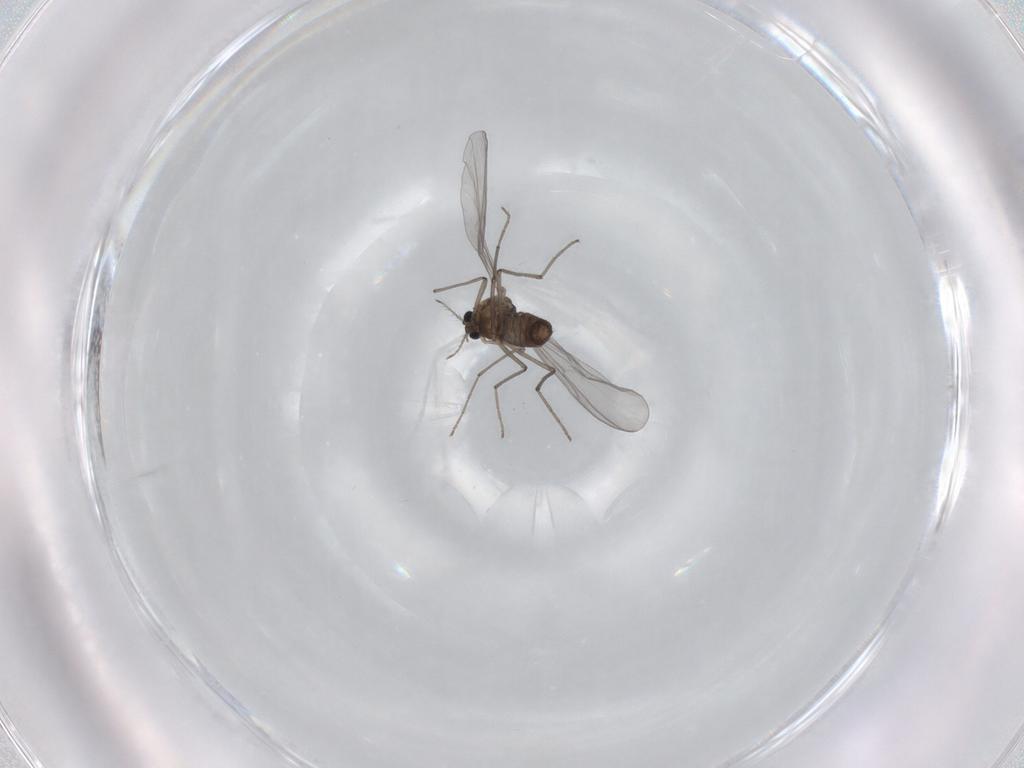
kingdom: Animalia
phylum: Arthropoda
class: Insecta
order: Diptera
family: Chironomidae
